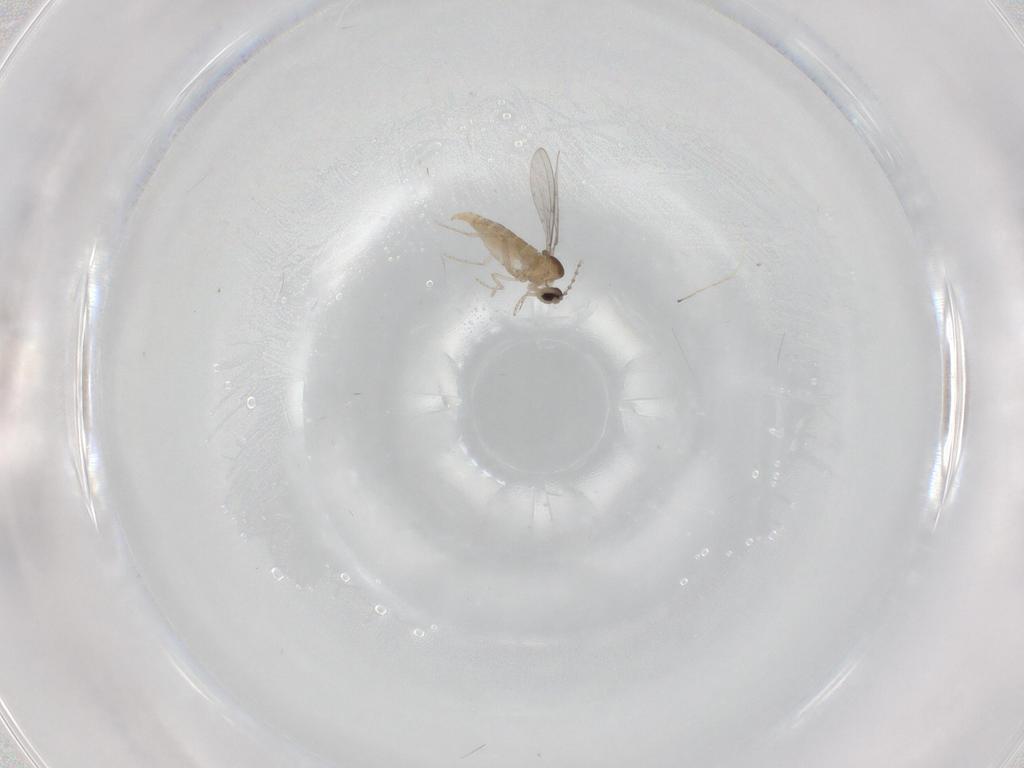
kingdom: Animalia
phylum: Arthropoda
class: Insecta
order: Diptera
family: Cecidomyiidae
